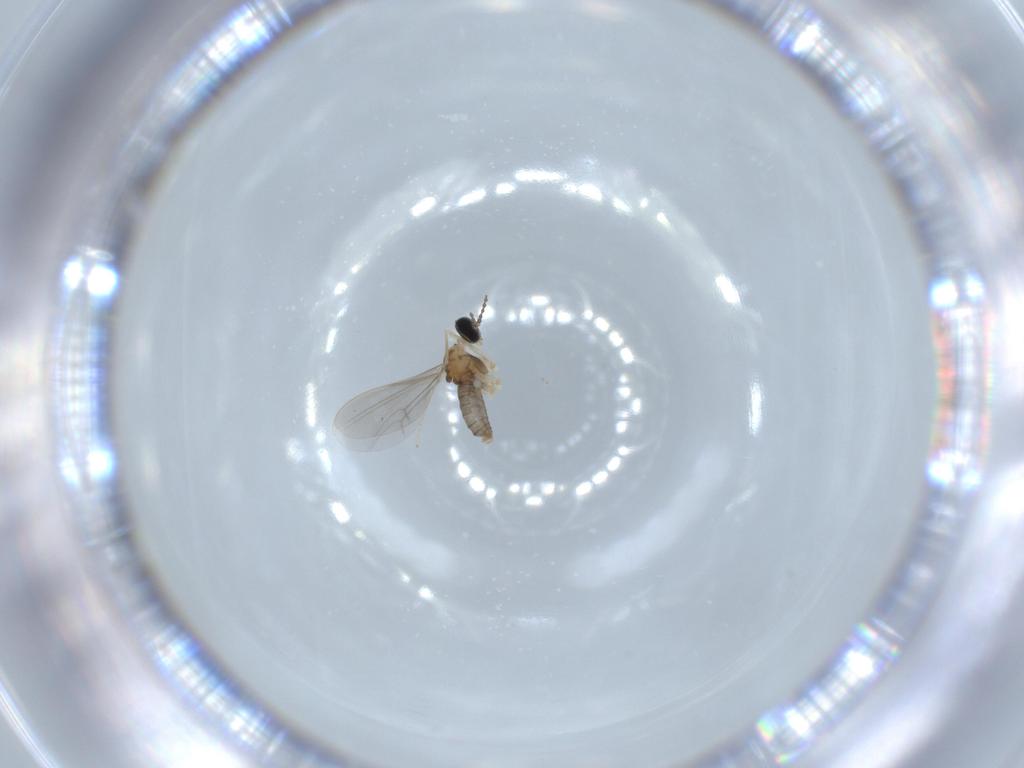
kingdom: Animalia
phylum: Arthropoda
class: Insecta
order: Diptera
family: Cecidomyiidae
